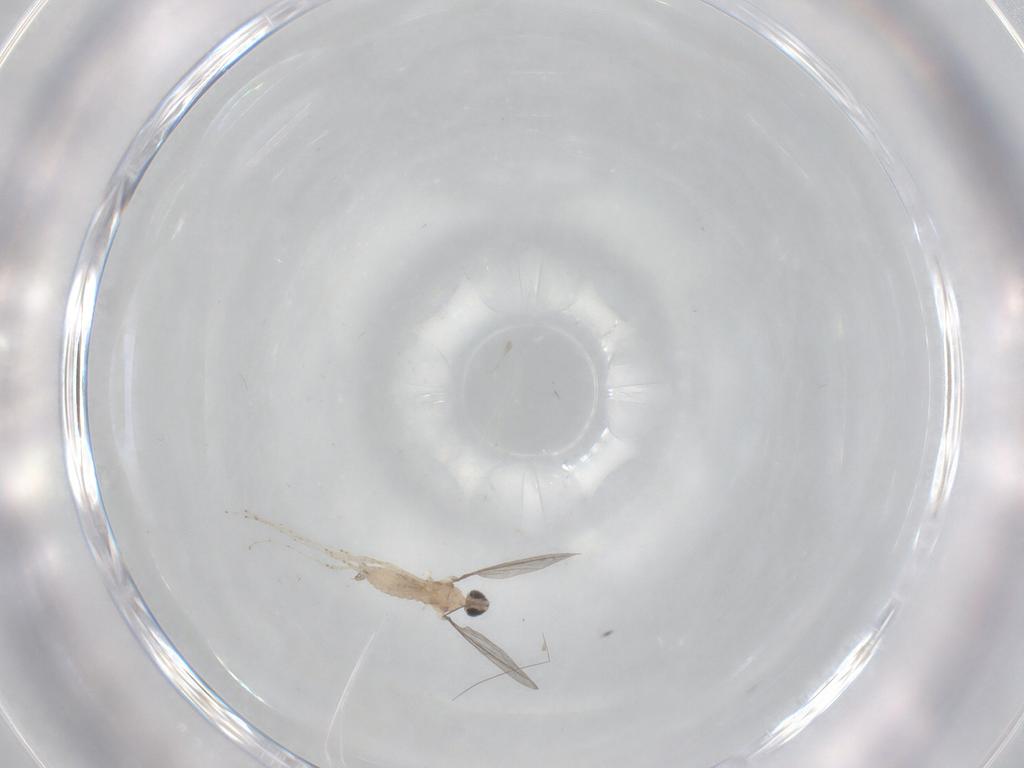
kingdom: Animalia
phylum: Arthropoda
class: Insecta
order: Diptera
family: Cecidomyiidae
